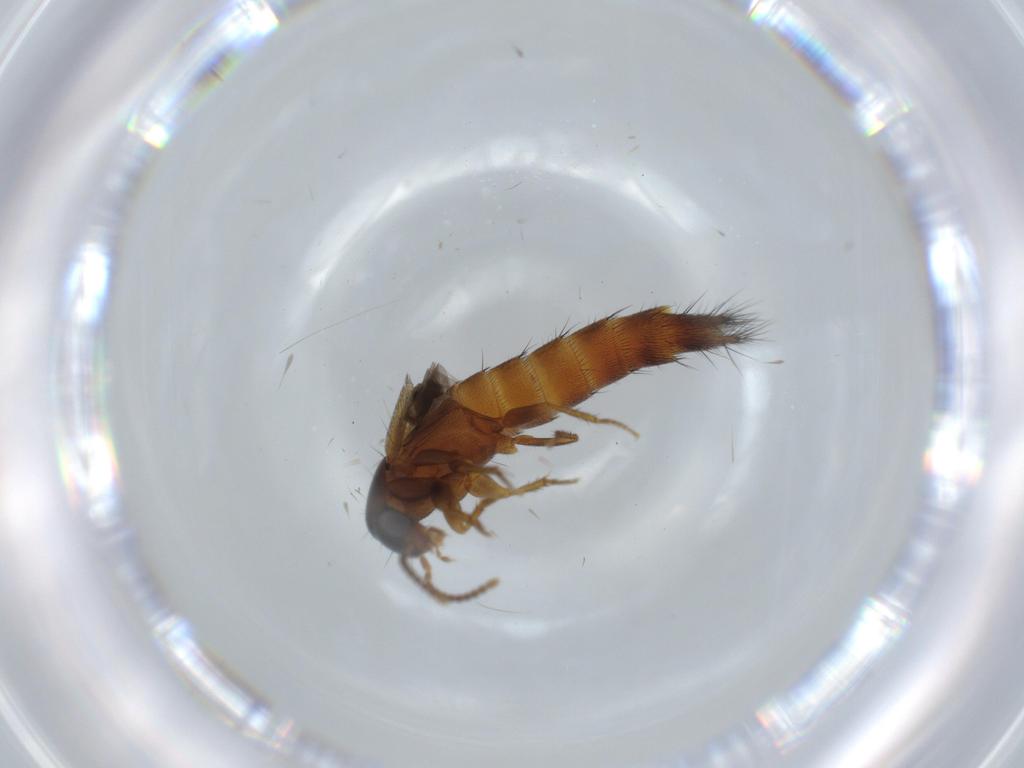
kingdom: Animalia
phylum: Arthropoda
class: Insecta
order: Coleoptera
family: Staphylinidae
